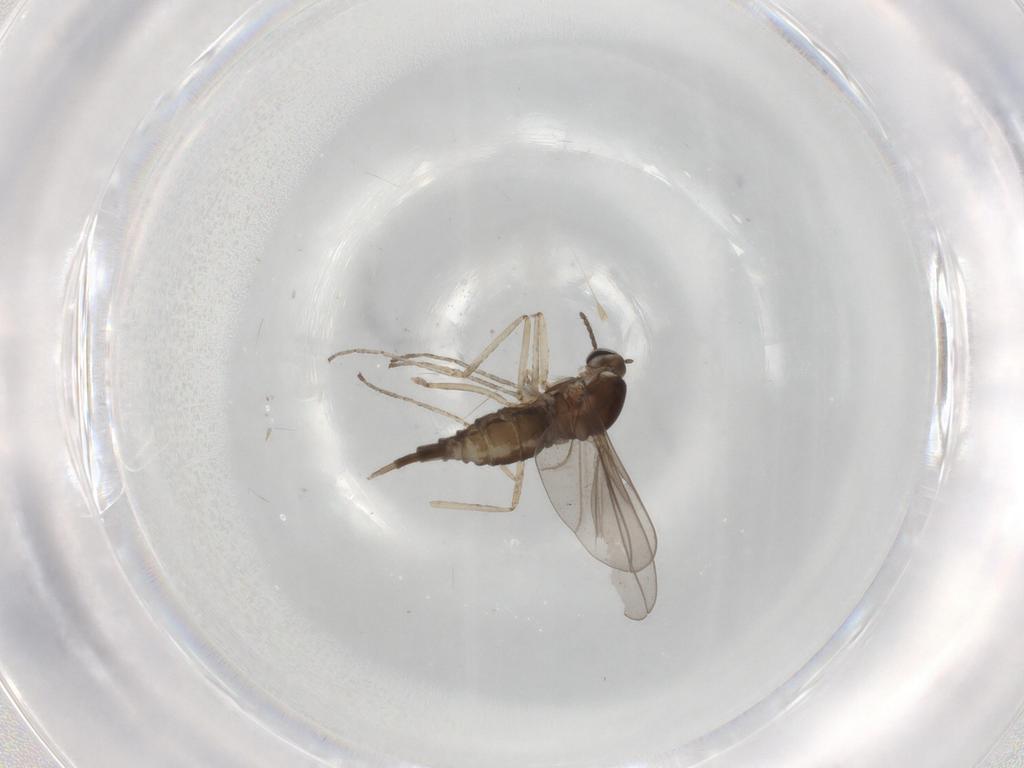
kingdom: Animalia
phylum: Arthropoda
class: Insecta
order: Diptera
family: Cecidomyiidae
